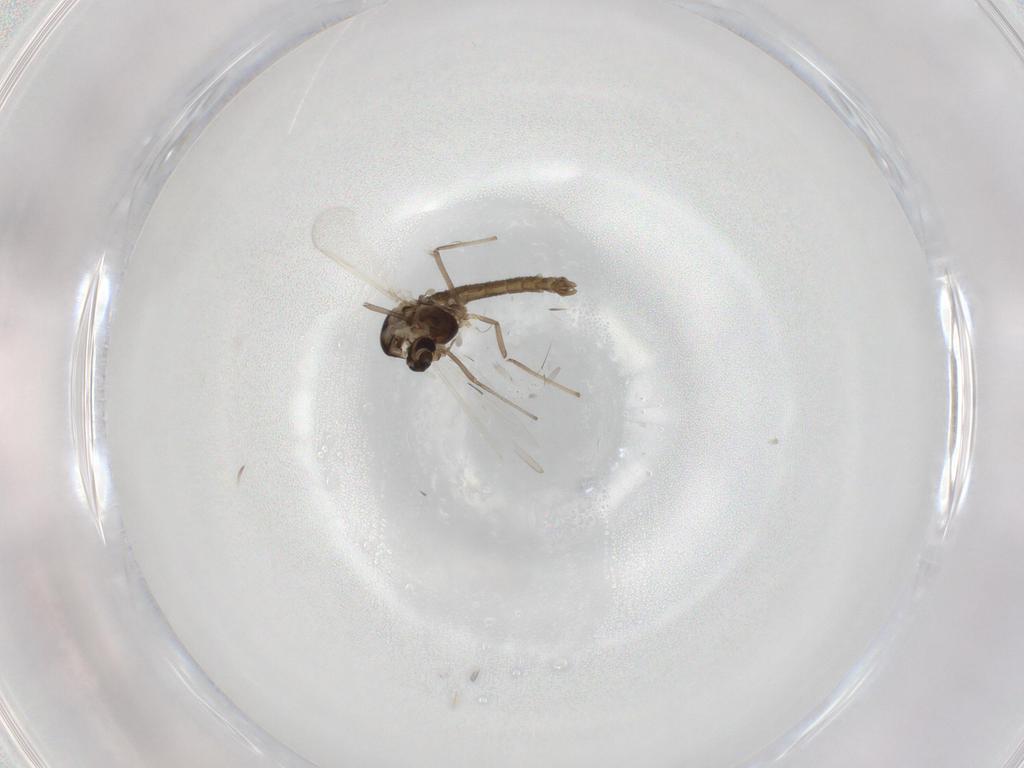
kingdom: Animalia
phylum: Arthropoda
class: Insecta
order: Diptera
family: Chironomidae
